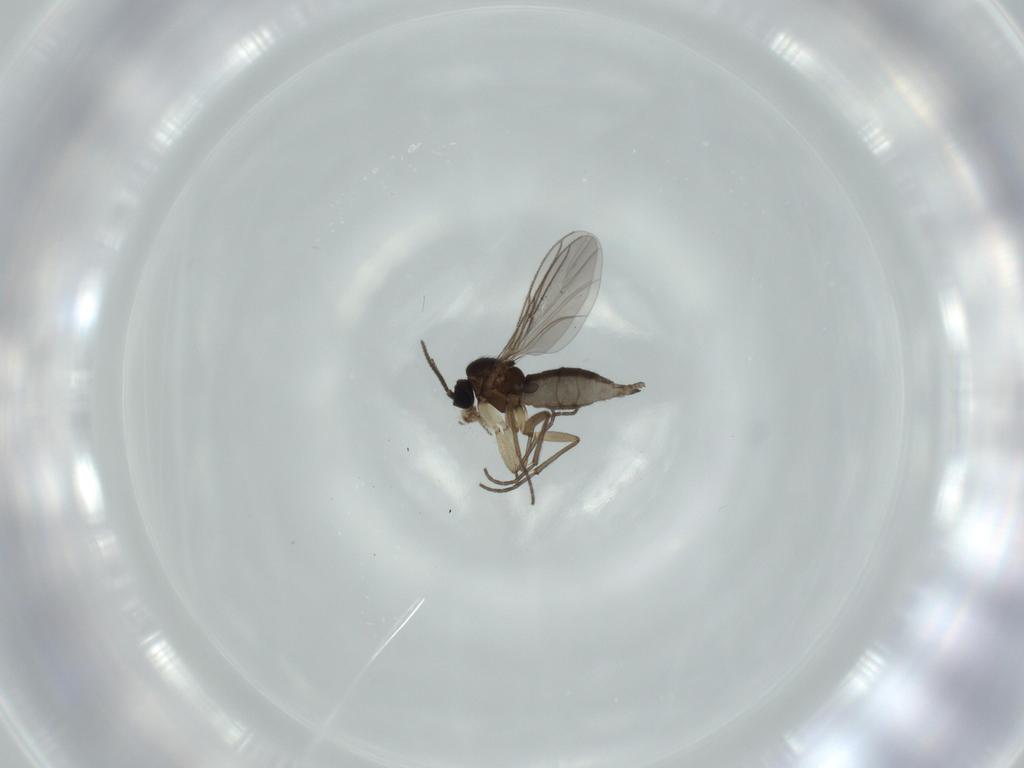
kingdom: Animalia
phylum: Arthropoda
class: Insecta
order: Diptera
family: Sciaridae
